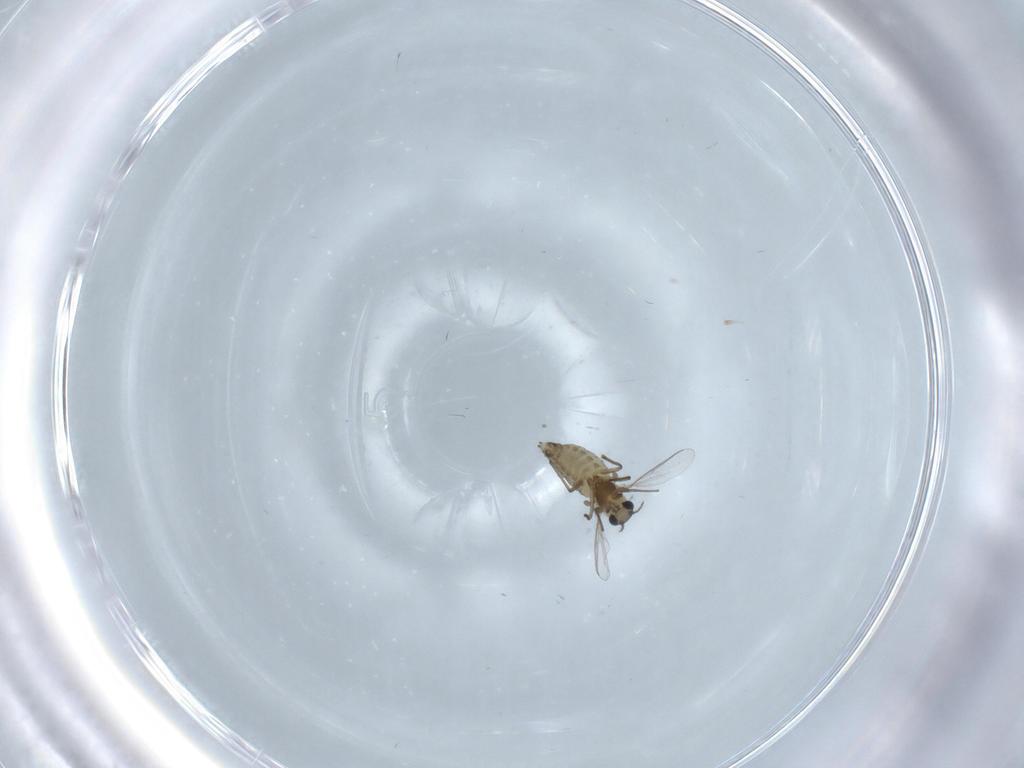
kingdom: Animalia
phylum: Arthropoda
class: Insecta
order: Diptera
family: Chironomidae
